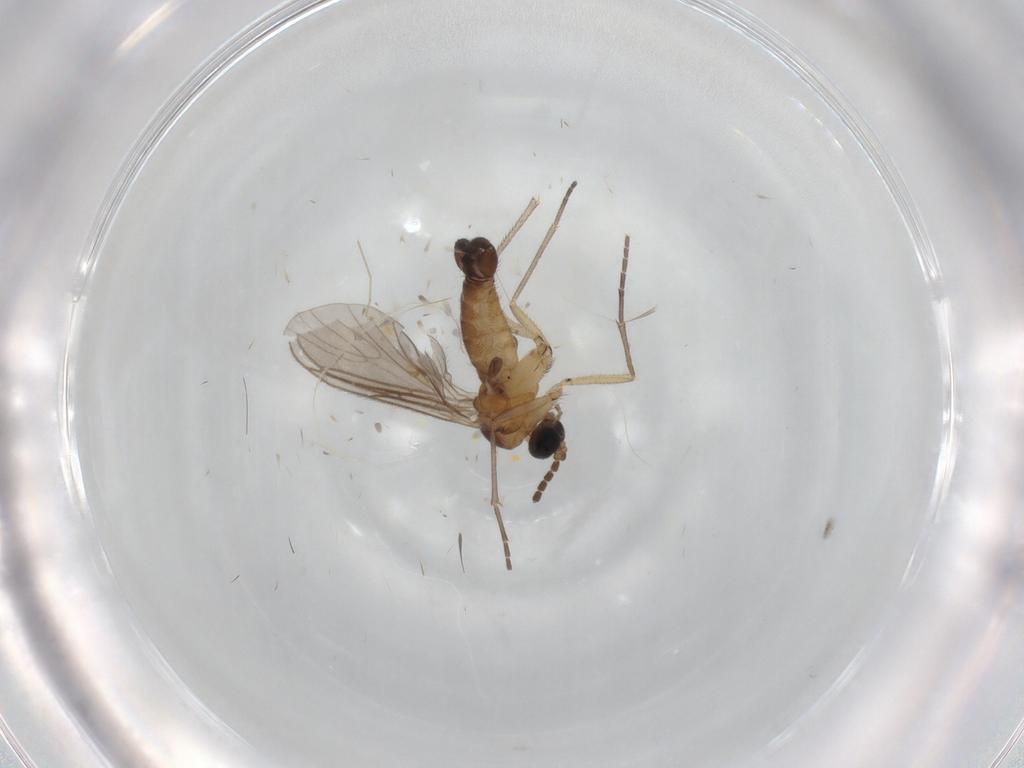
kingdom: Animalia
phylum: Arthropoda
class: Insecta
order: Diptera
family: Sciaridae
